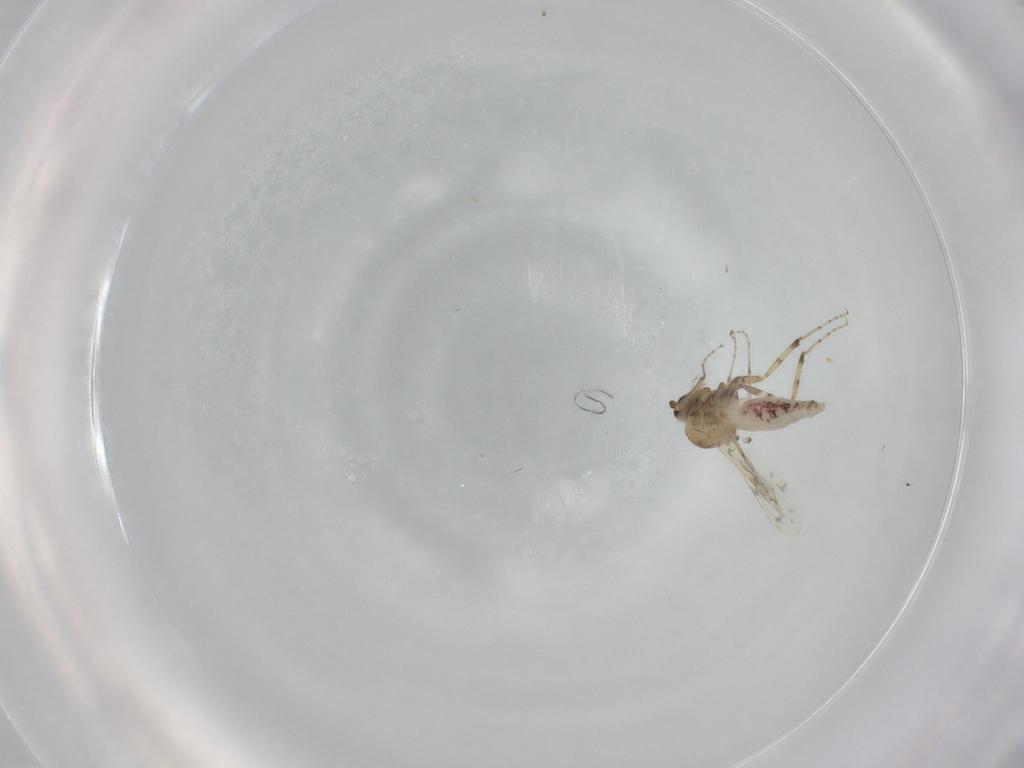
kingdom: Animalia
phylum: Arthropoda
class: Insecta
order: Diptera
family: Ceratopogonidae
